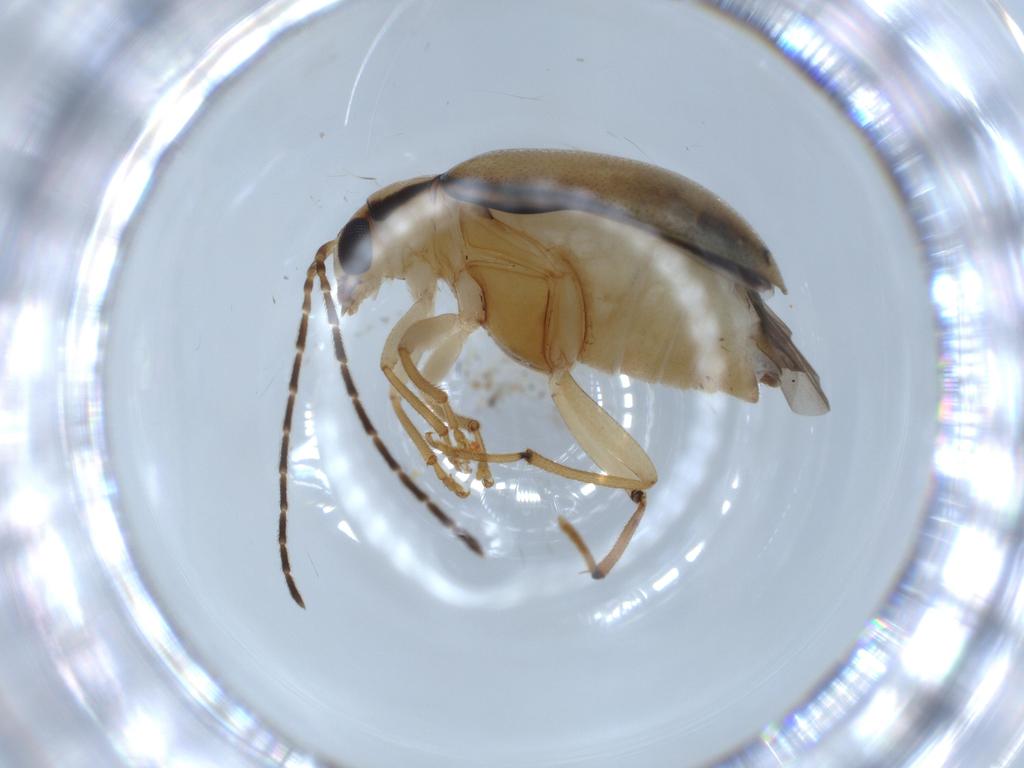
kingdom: Animalia
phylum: Arthropoda
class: Insecta
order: Coleoptera
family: Chrysomelidae
